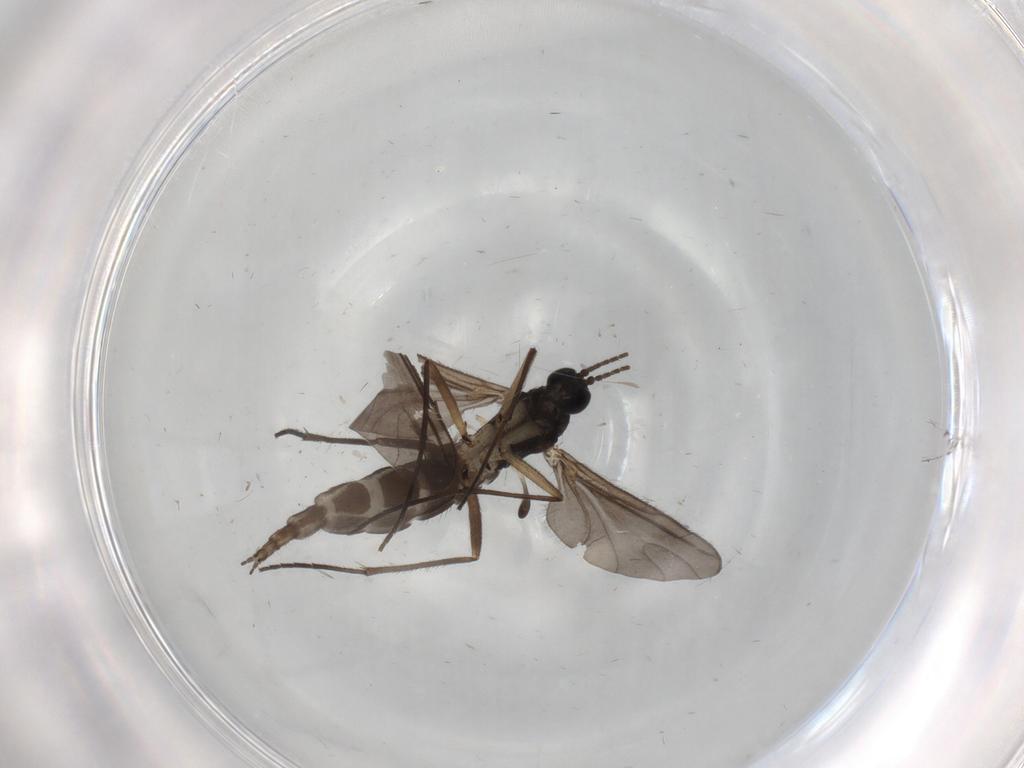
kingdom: Animalia
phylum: Arthropoda
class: Insecta
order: Diptera
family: Sciaridae
